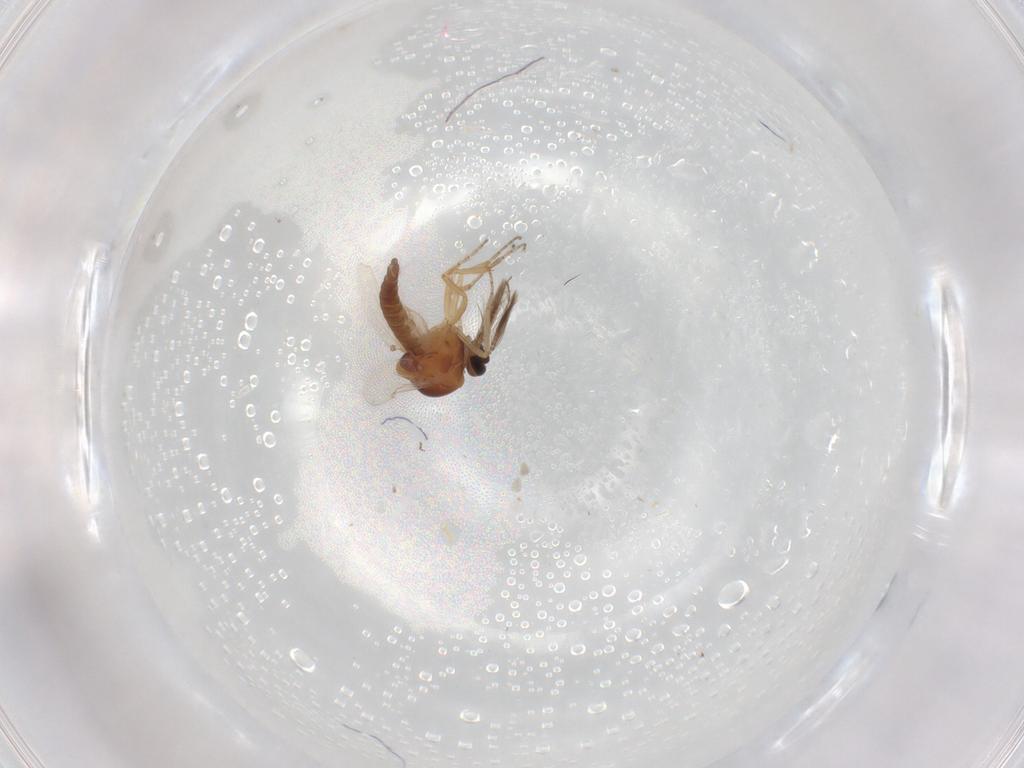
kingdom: Animalia
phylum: Arthropoda
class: Insecta
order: Diptera
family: Ceratopogonidae
